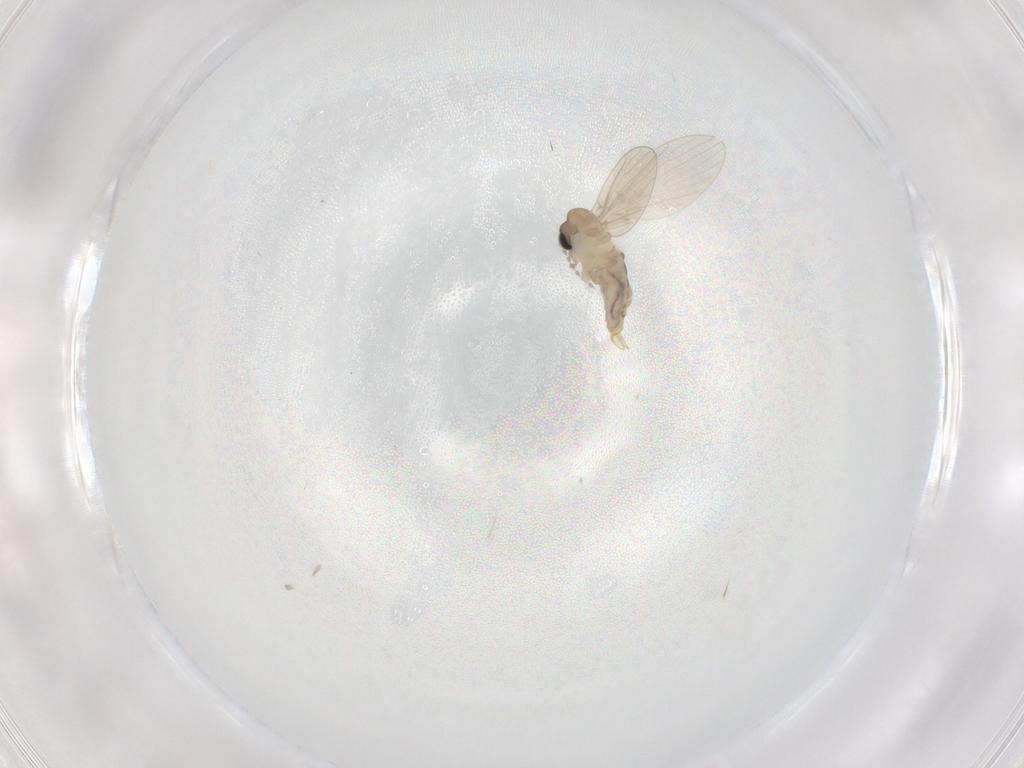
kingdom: Animalia
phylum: Arthropoda
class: Insecta
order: Diptera
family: Psychodidae
